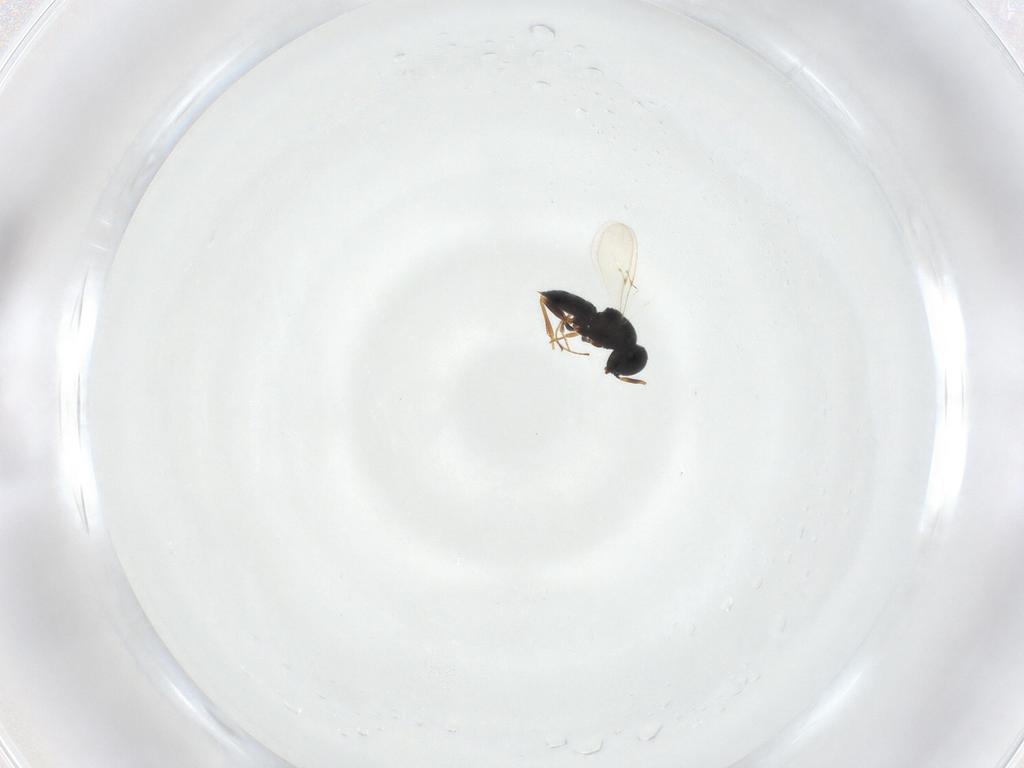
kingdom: Animalia
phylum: Arthropoda
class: Insecta
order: Hymenoptera
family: Scelionidae
